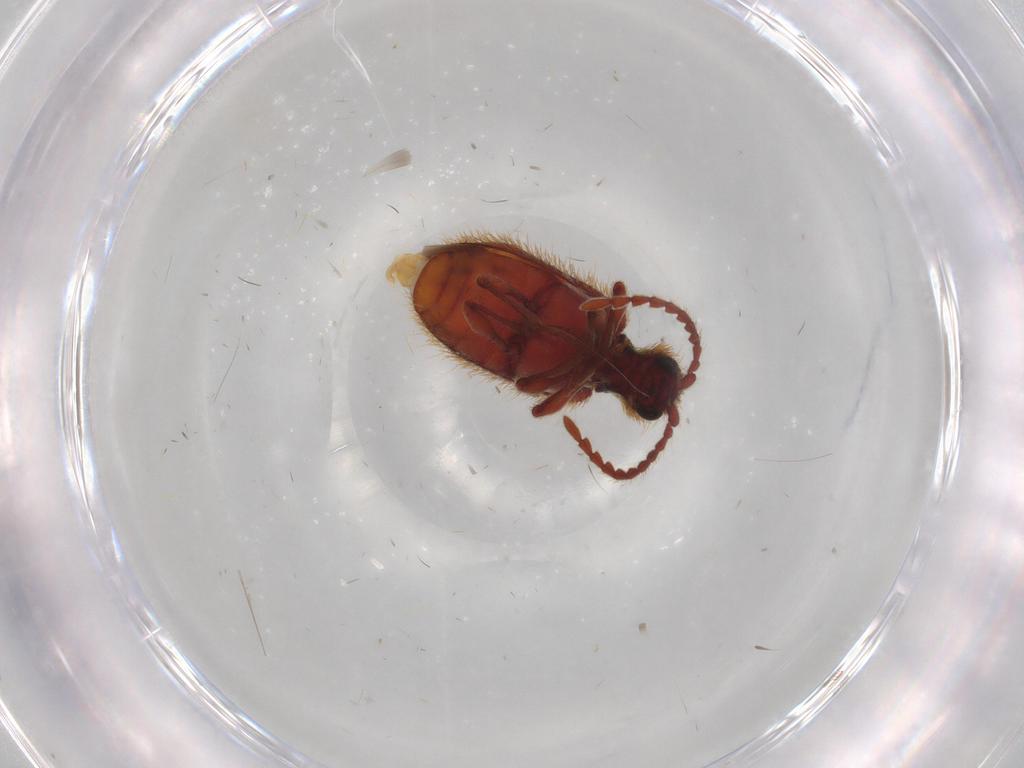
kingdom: Animalia
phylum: Arthropoda
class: Insecta
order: Coleoptera
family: Ptinidae
